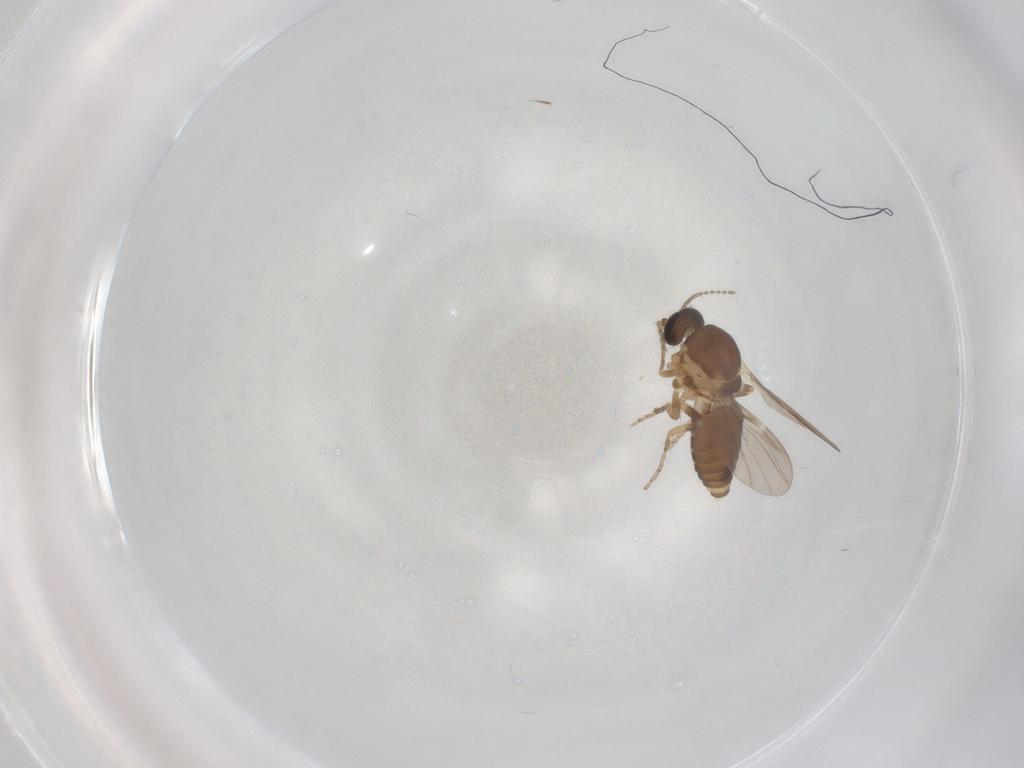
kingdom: Animalia
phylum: Arthropoda
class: Insecta
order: Diptera
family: Ceratopogonidae
